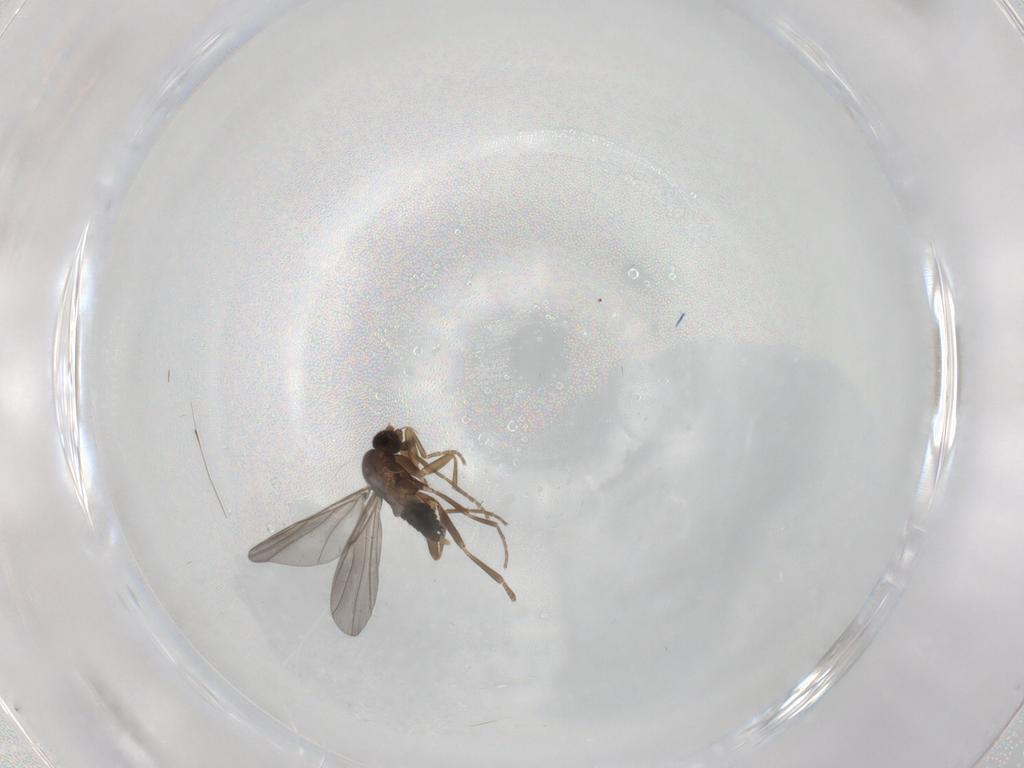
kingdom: Animalia
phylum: Arthropoda
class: Insecta
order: Diptera
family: Sciaridae
